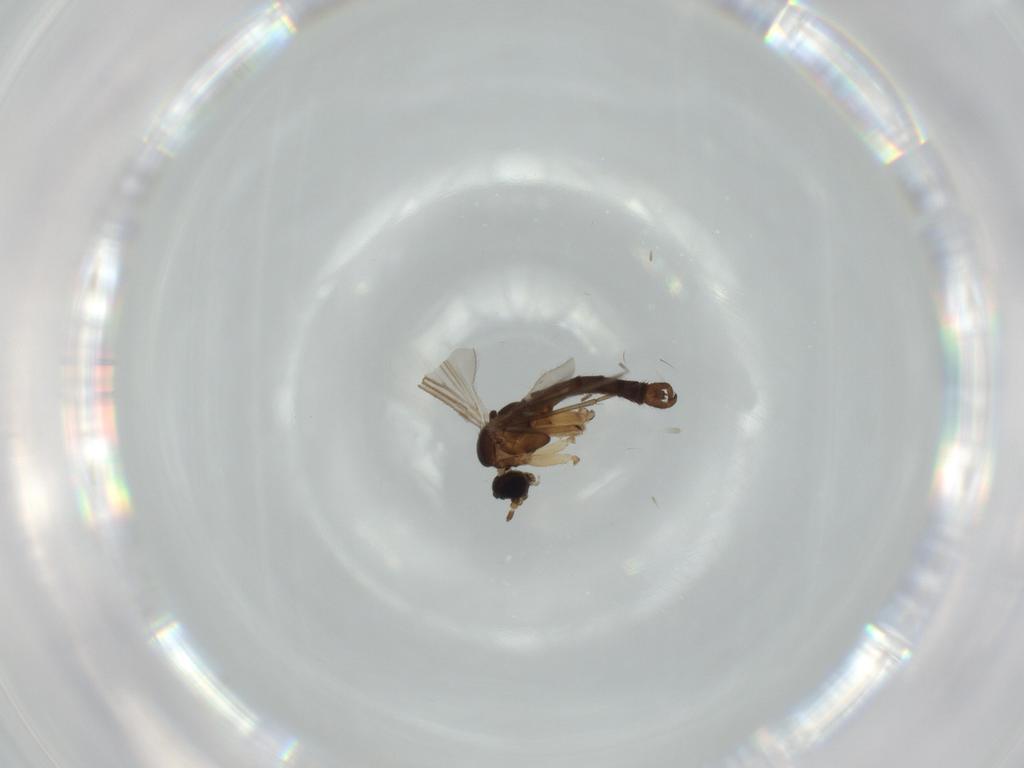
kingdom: Animalia
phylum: Arthropoda
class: Insecta
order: Diptera
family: Sciaridae
